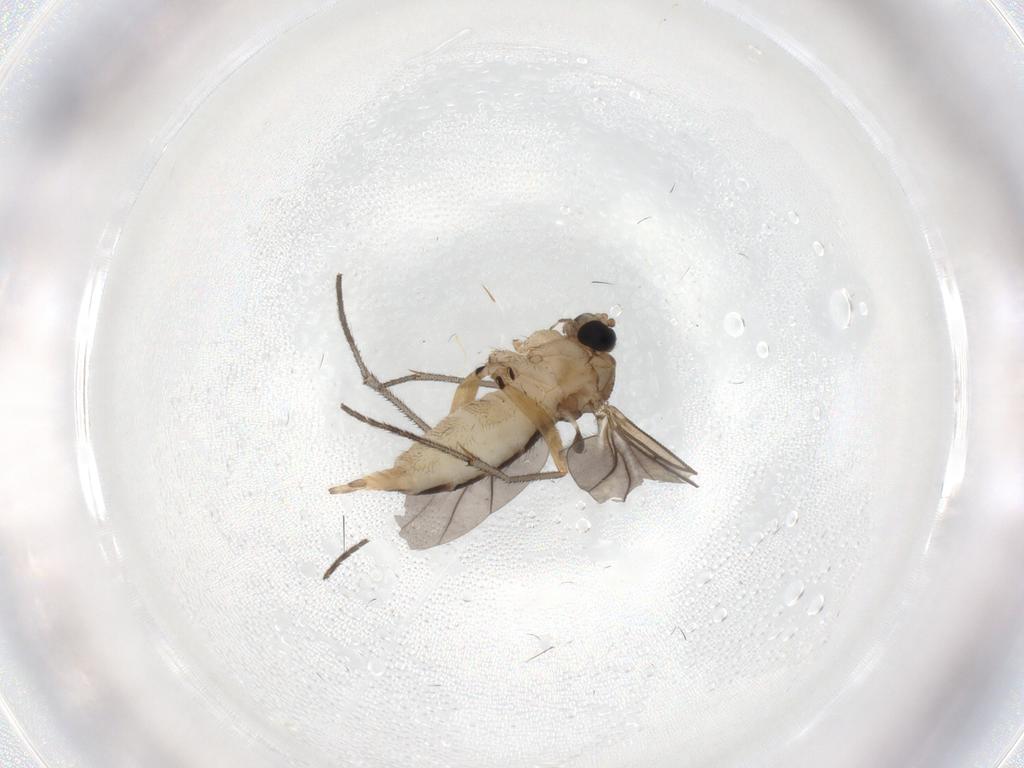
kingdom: Animalia
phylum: Arthropoda
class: Insecta
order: Diptera
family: Sciaridae
